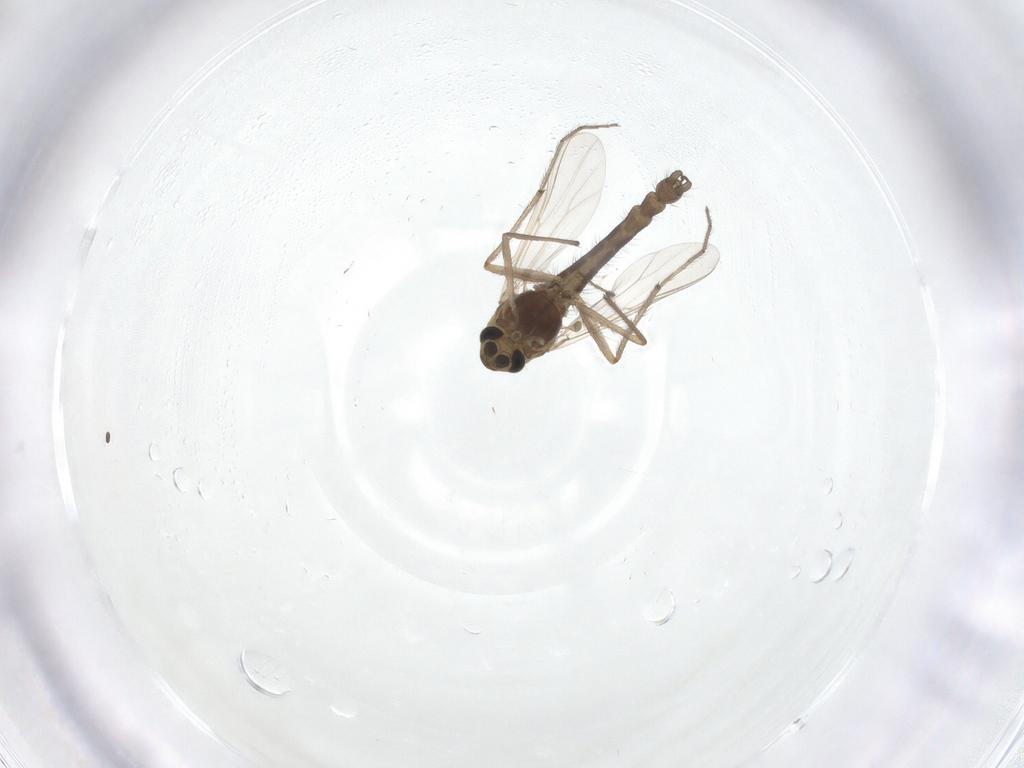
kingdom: Animalia
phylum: Arthropoda
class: Insecta
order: Diptera
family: Chironomidae
